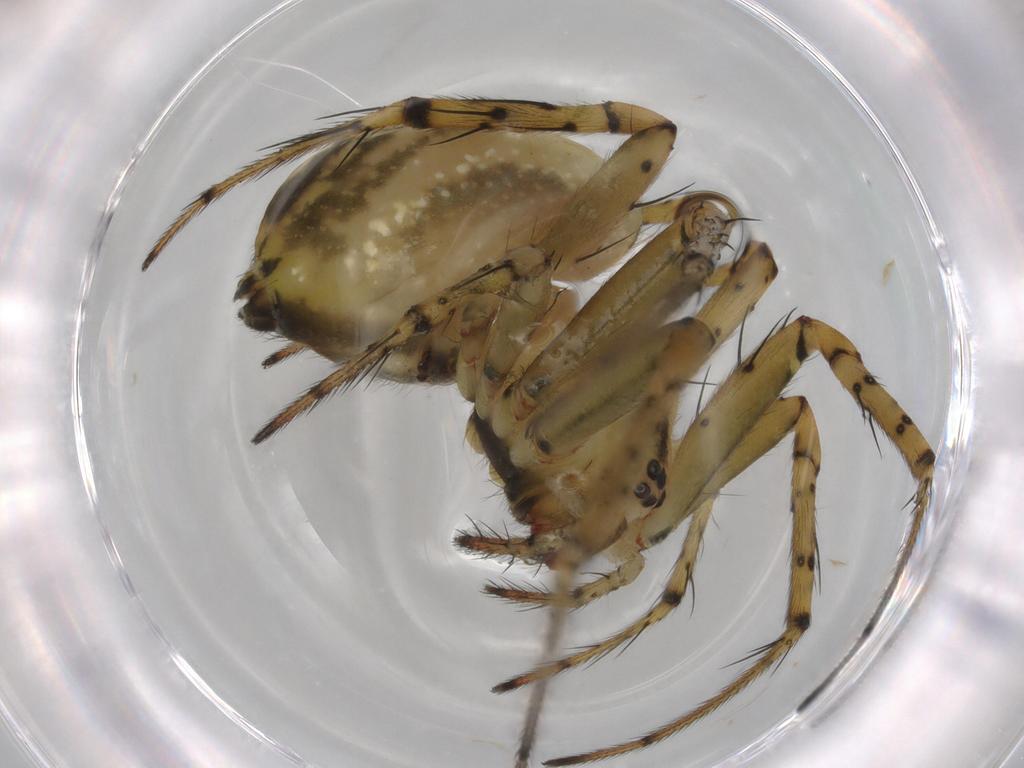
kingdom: Animalia
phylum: Arthropoda
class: Arachnida
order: Araneae
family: Araneidae
